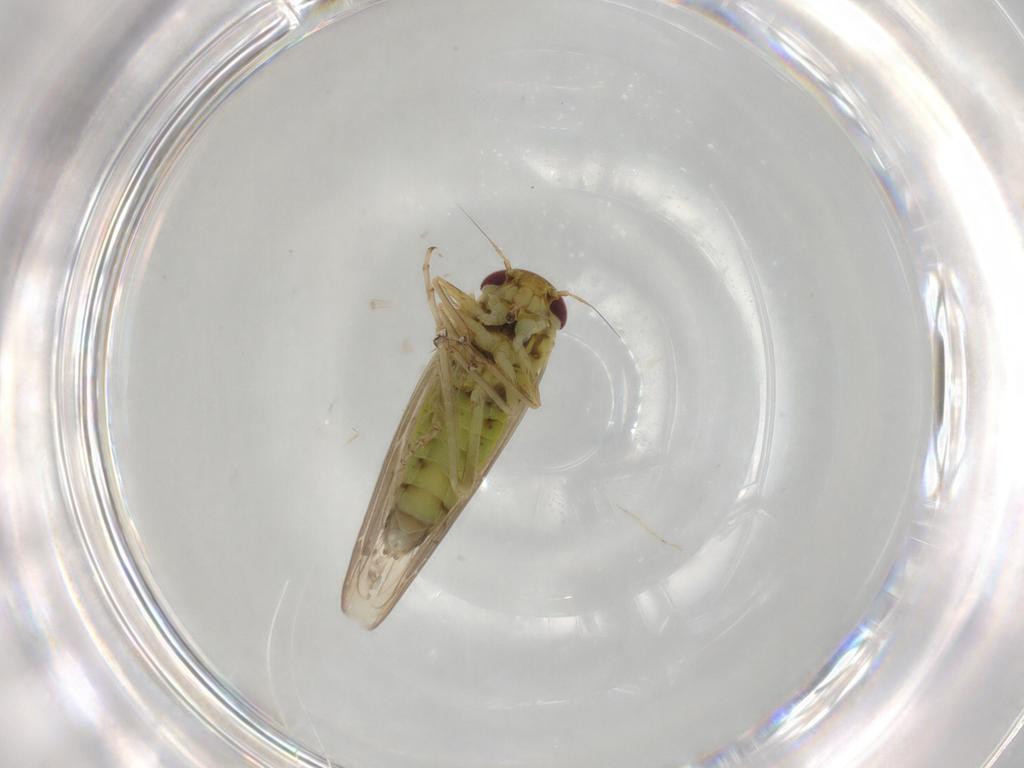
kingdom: Animalia
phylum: Arthropoda
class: Insecta
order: Hemiptera
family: Cicadellidae
